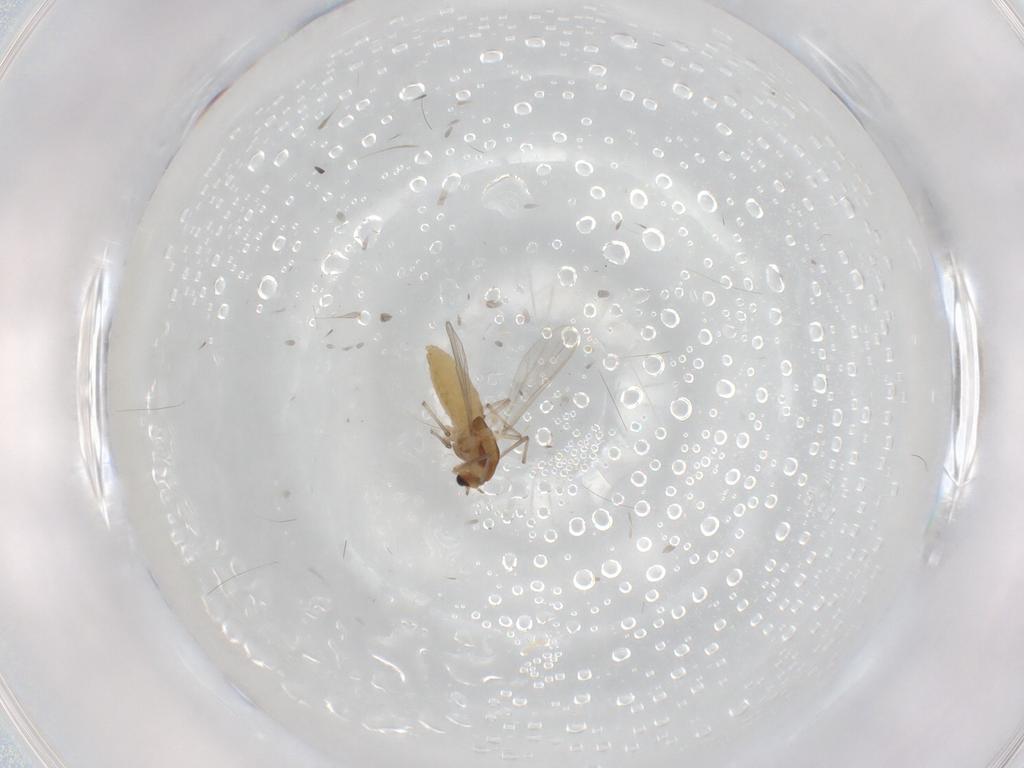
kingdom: Animalia
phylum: Arthropoda
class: Insecta
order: Diptera
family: Chironomidae
